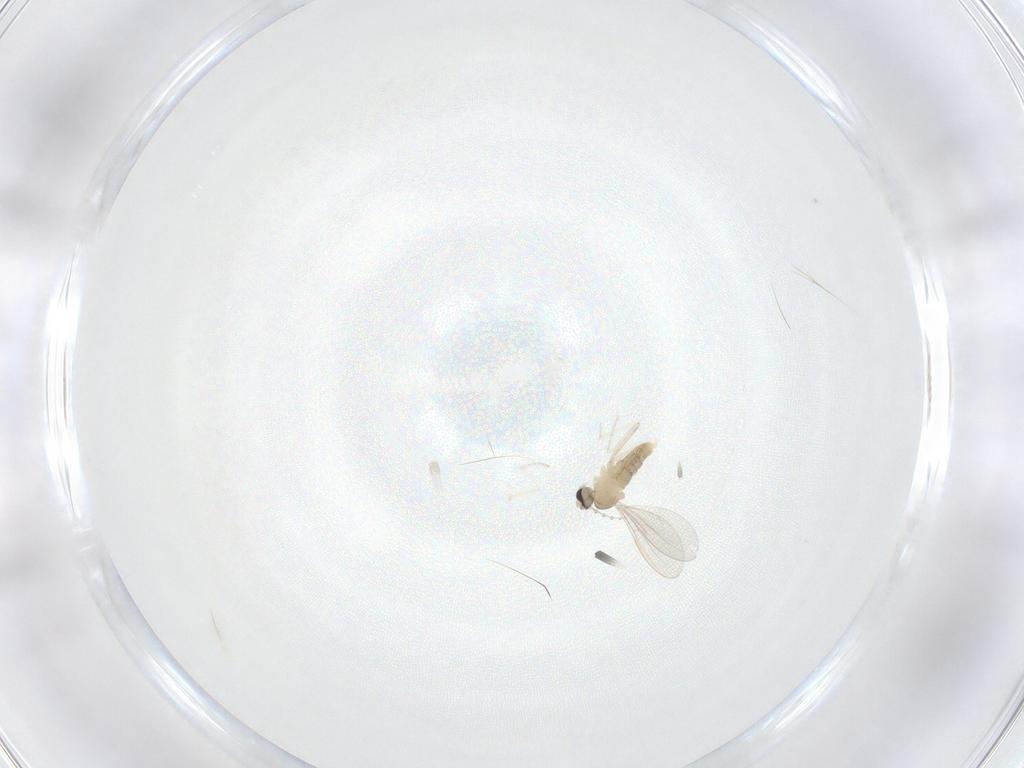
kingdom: Animalia
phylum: Arthropoda
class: Insecta
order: Diptera
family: Cecidomyiidae
